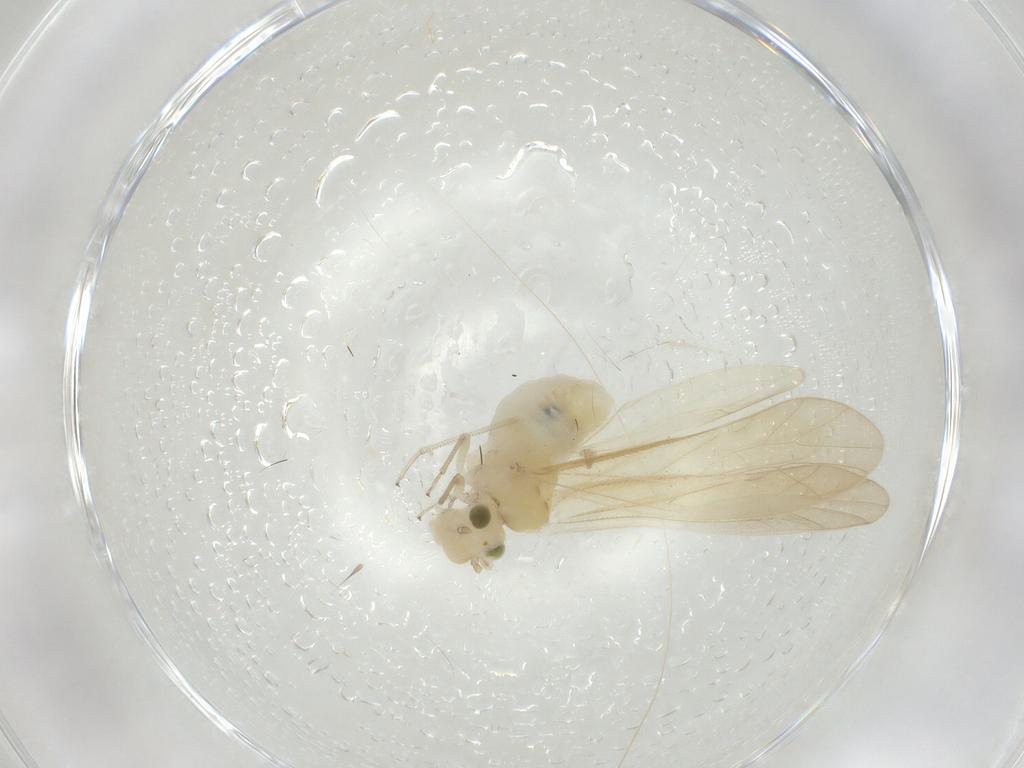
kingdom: Animalia
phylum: Arthropoda
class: Insecta
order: Psocodea
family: Caeciliusidae
